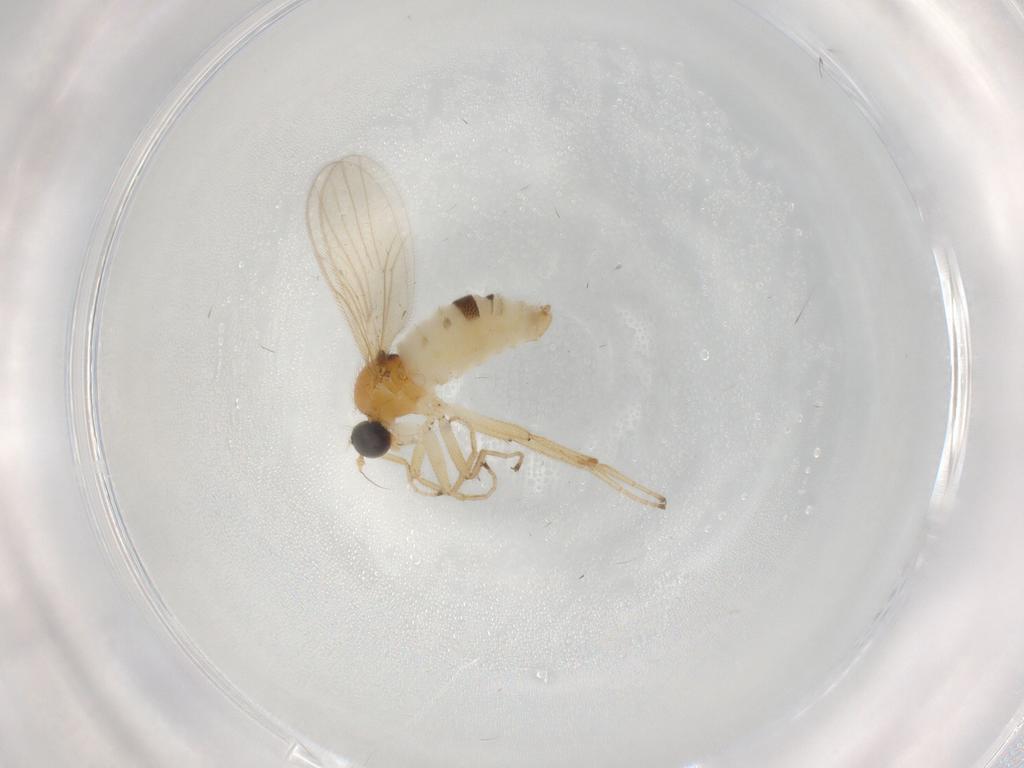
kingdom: Animalia
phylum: Arthropoda
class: Insecta
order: Diptera
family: Hybotidae
